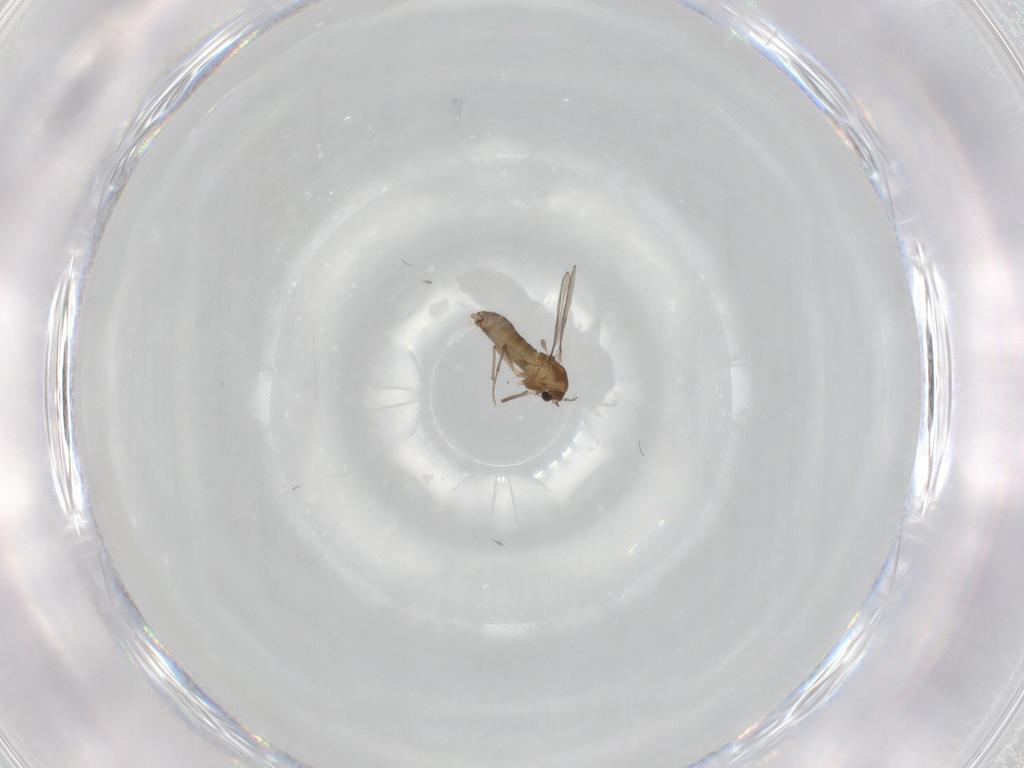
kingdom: Animalia
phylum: Arthropoda
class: Insecta
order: Diptera
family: Chironomidae
